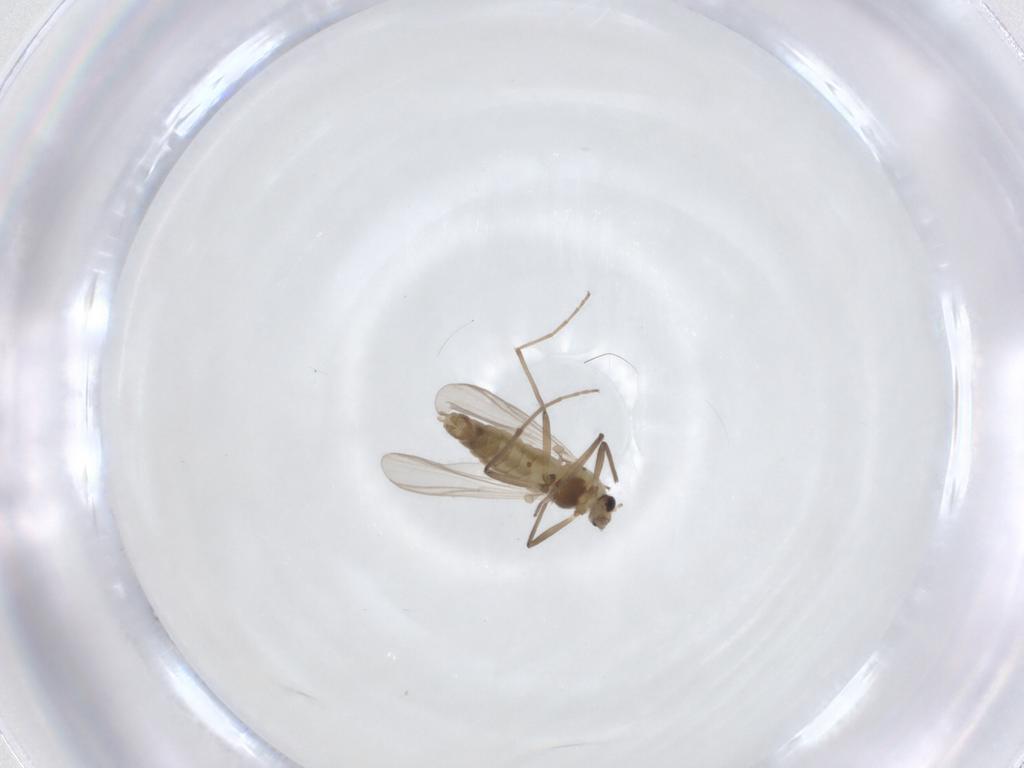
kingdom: Animalia
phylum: Arthropoda
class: Insecta
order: Diptera
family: Chironomidae
